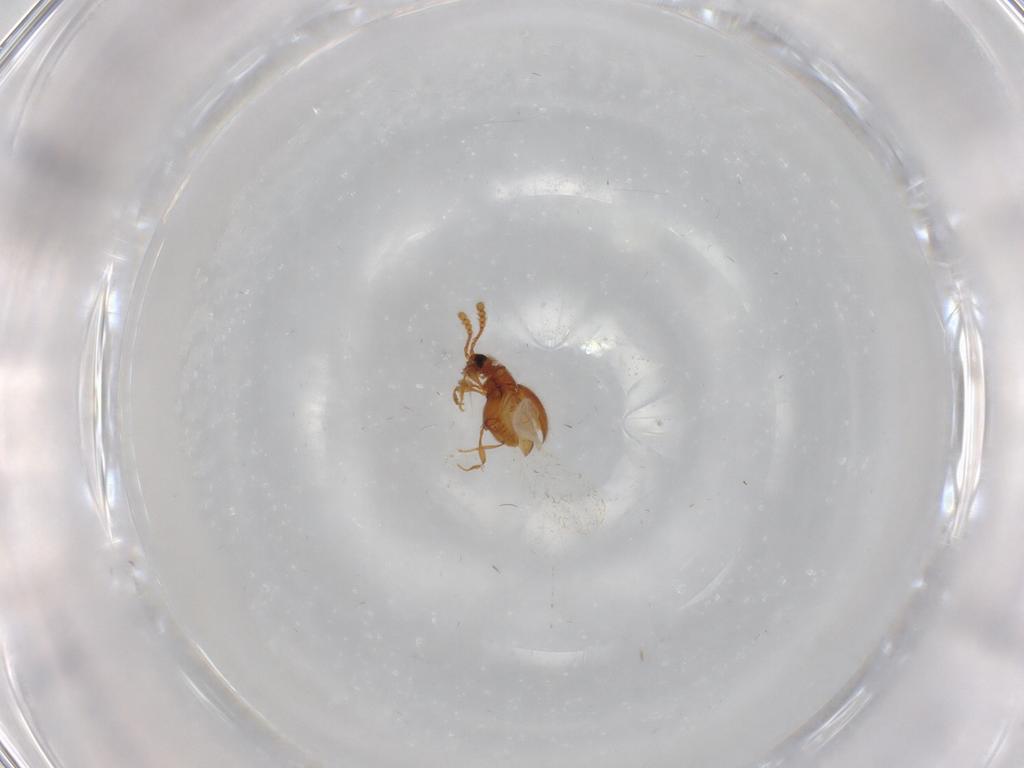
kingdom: Animalia
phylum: Arthropoda
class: Insecta
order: Coleoptera
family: Staphylinidae
